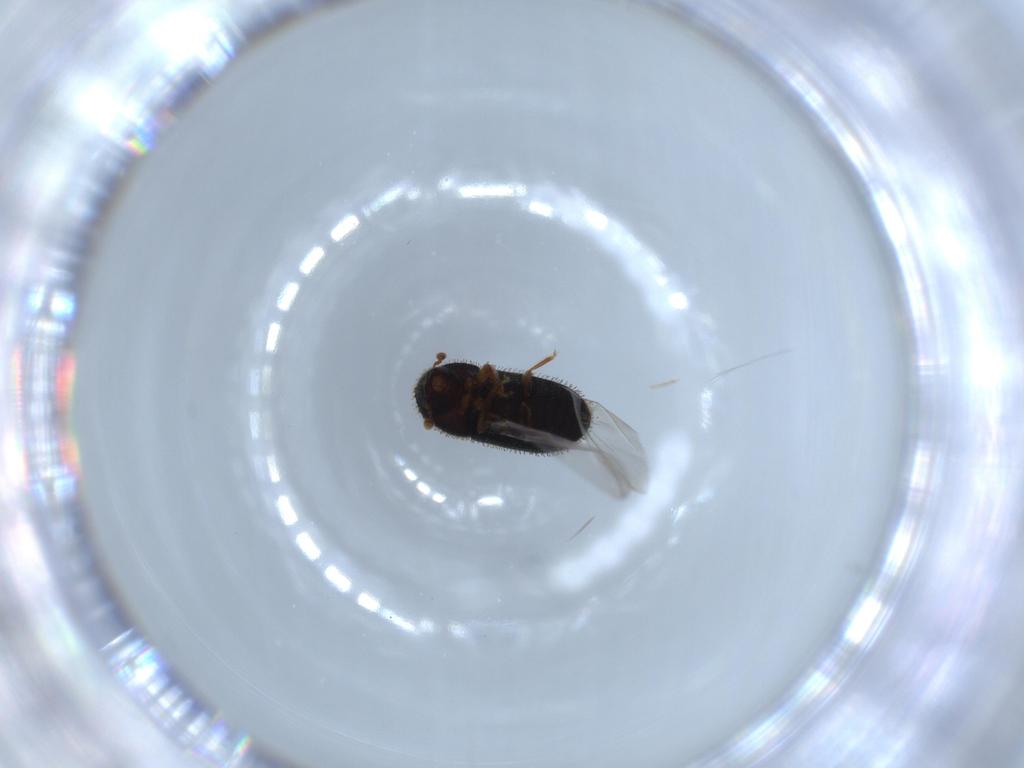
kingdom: Animalia
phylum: Arthropoda
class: Insecta
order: Coleoptera
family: Curculionidae
